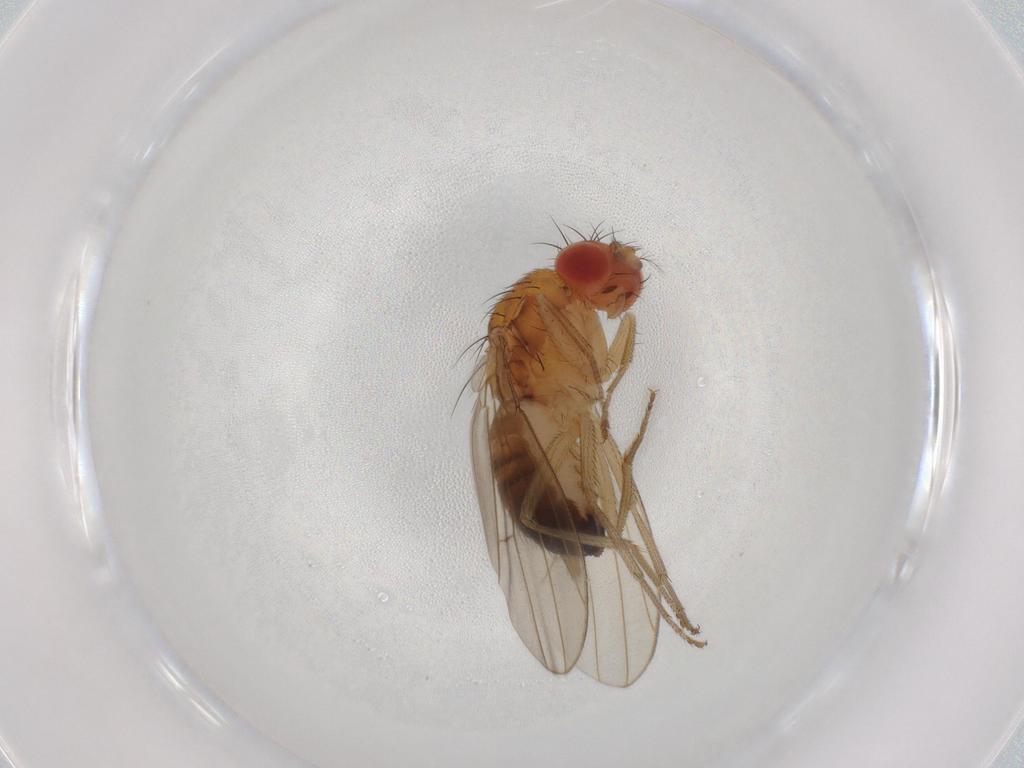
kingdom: Animalia
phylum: Arthropoda
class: Insecta
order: Diptera
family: Drosophilidae
